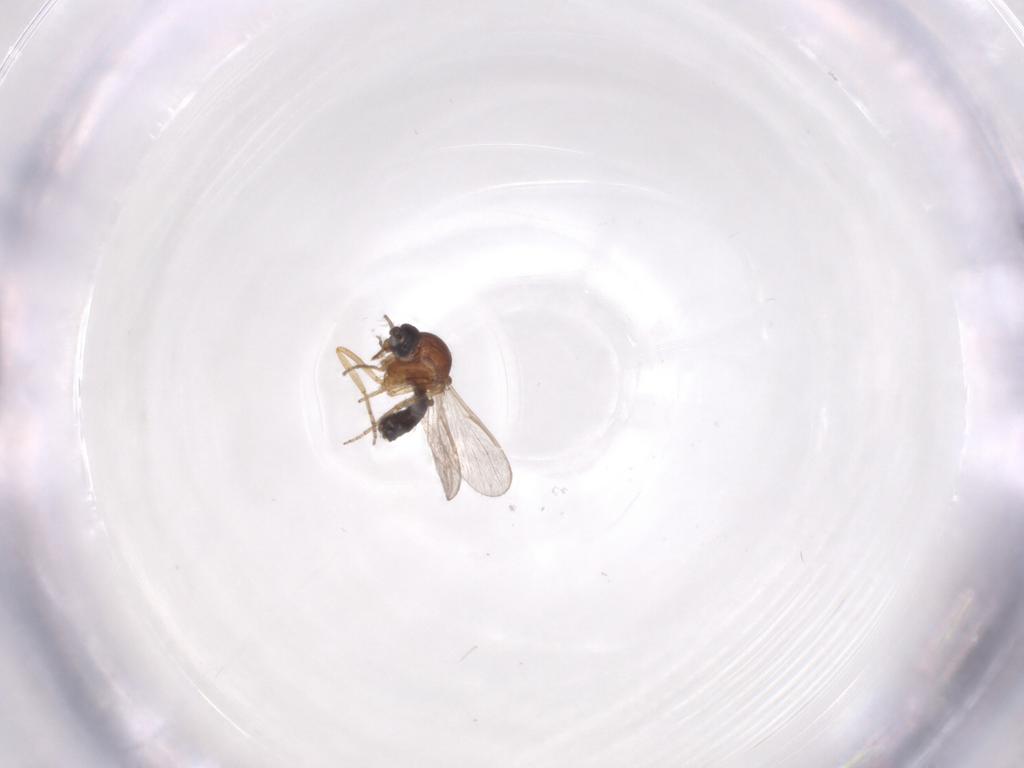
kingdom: Animalia
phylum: Arthropoda
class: Insecta
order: Diptera
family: Ceratopogonidae
